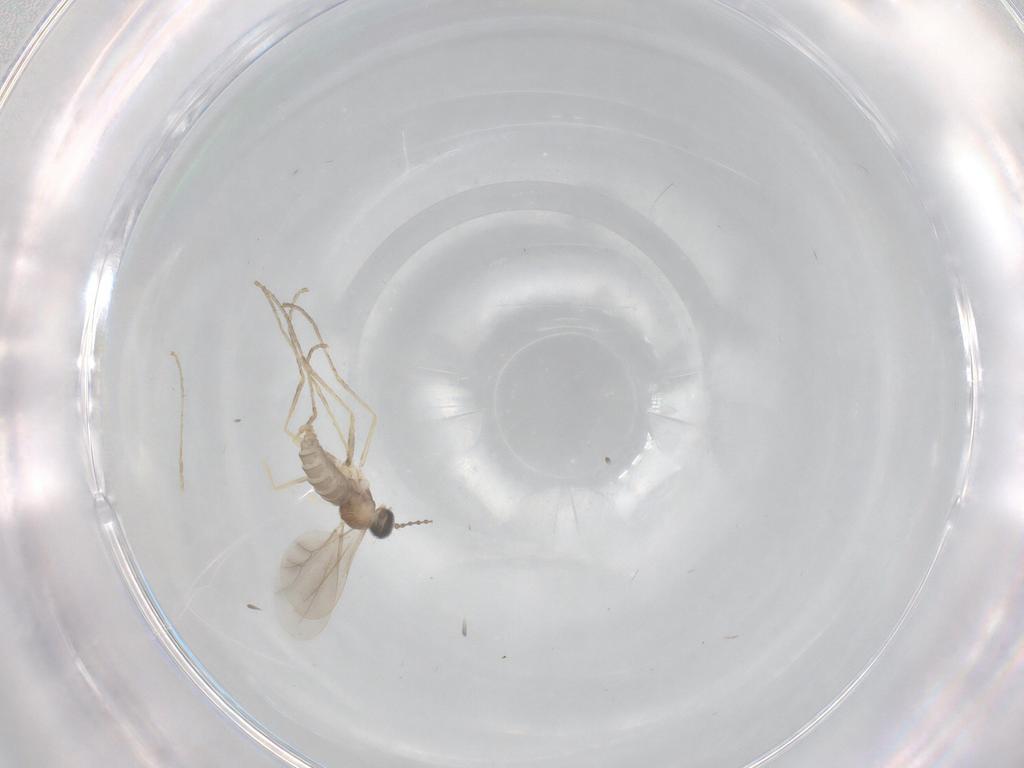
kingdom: Animalia
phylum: Arthropoda
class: Insecta
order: Diptera
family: Cecidomyiidae
